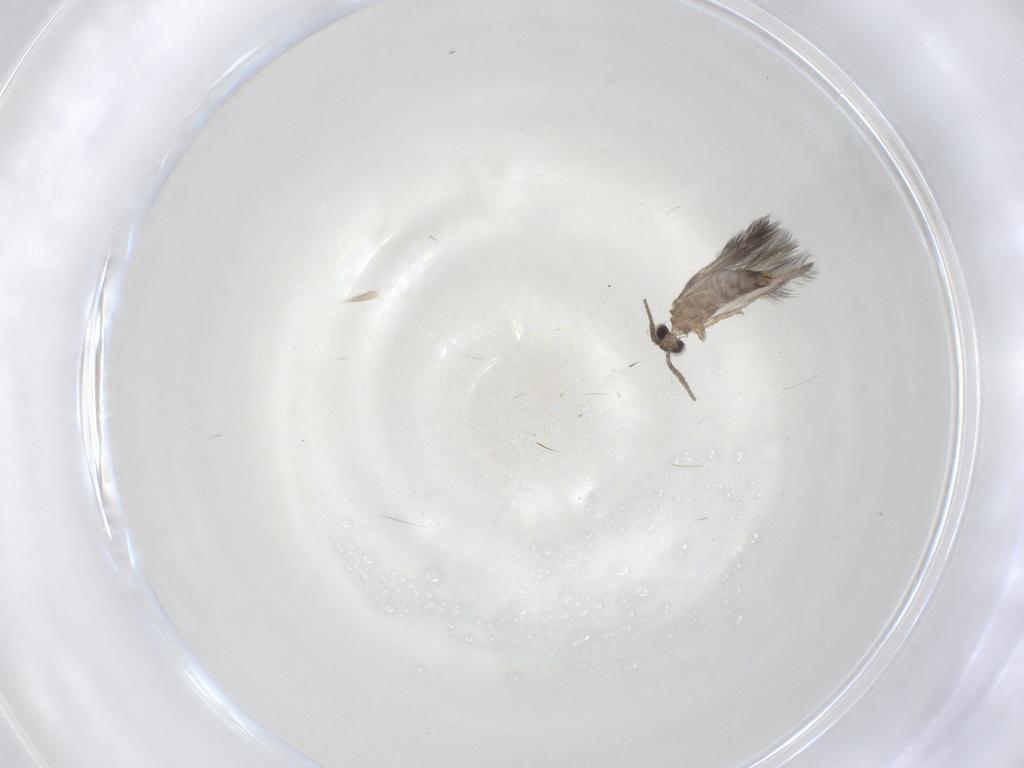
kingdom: Animalia
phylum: Arthropoda
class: Insecta
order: Trichoptera
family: Hydroptilidae
